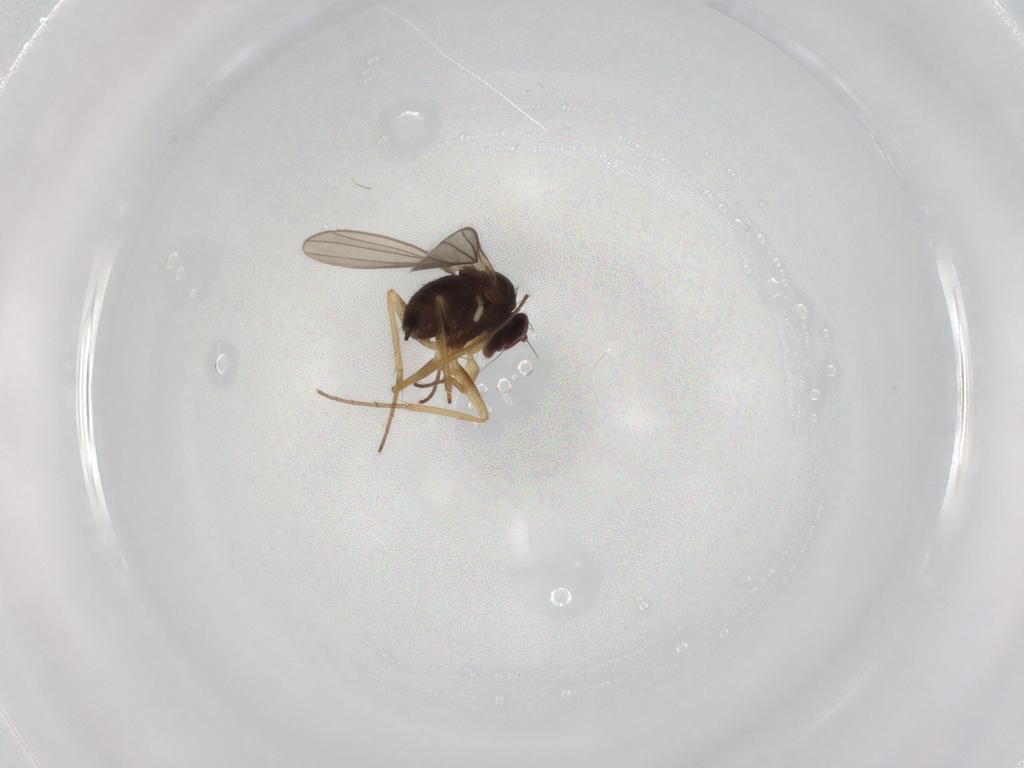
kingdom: Animalia
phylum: Arthropoda
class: Insecta
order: Diptera
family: Dolichopodidae
